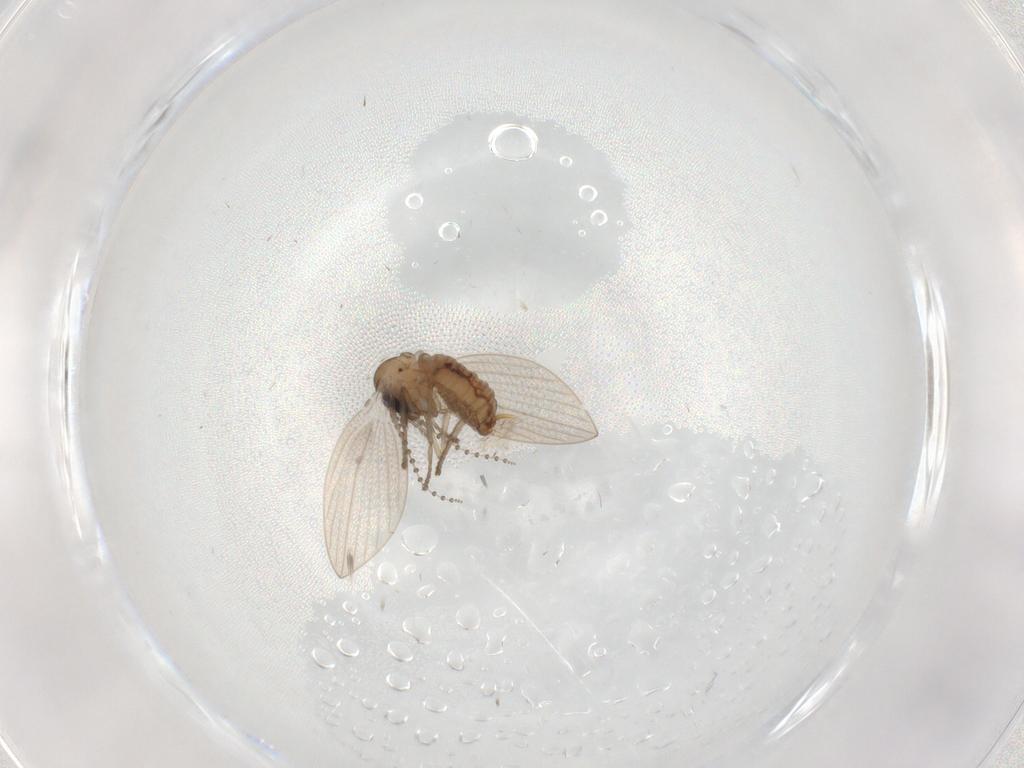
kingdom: Animalia
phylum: Arthropoda
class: Insecta
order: Diptera
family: Psychodidae
